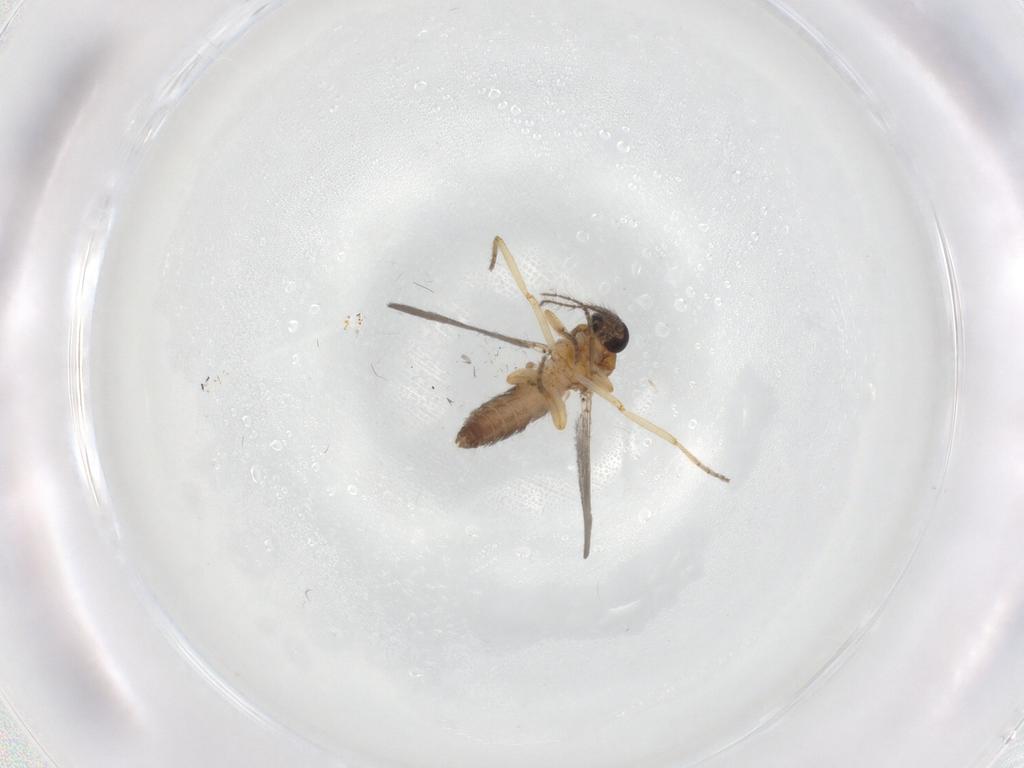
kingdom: Animalia
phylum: Arthropoda
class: Insecta
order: Diptera
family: Ceratopogonidae
